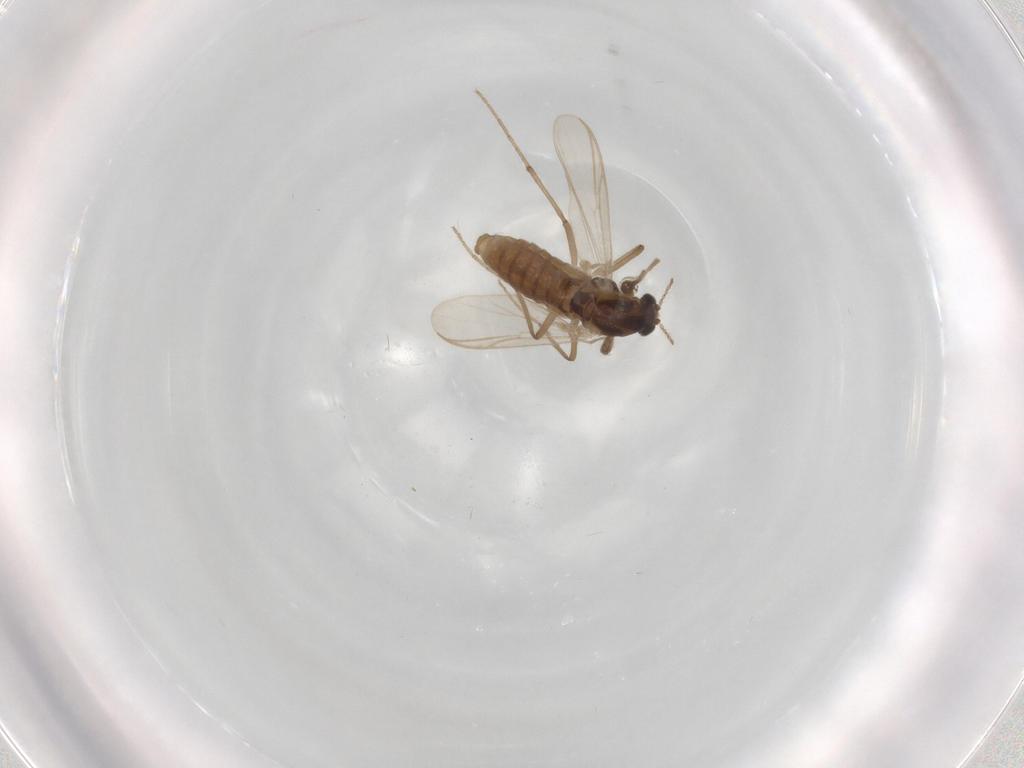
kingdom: Animalia
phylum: Arthropoda
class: Insecta
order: Diptera
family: Chironomidae
